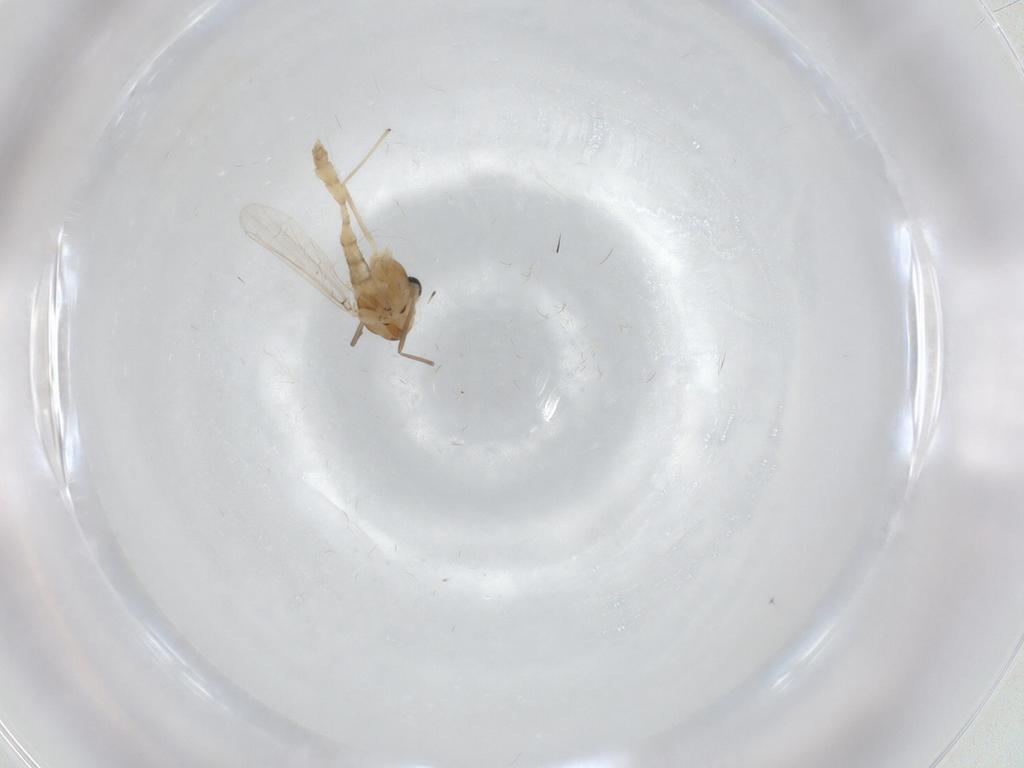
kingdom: Animalia
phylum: Arthropoda
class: Insecta
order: Diptera
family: Chironomidae
